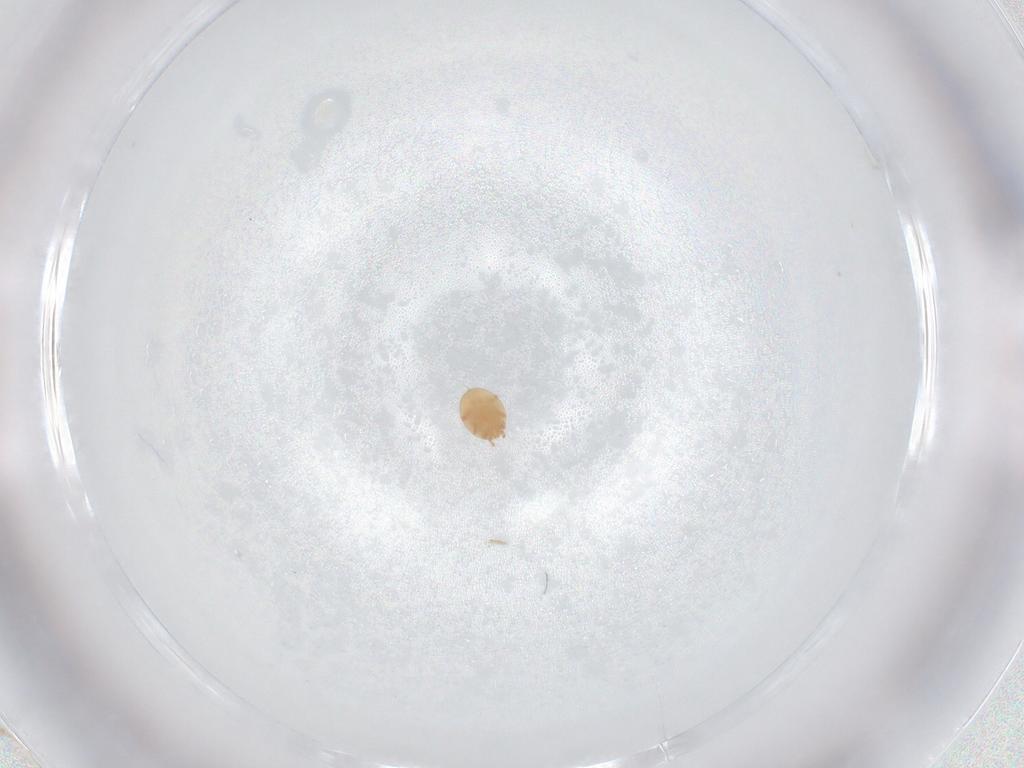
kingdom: Animalia
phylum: Arthropoda
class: Arachnida
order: Mesostigmata
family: Trematuridae
